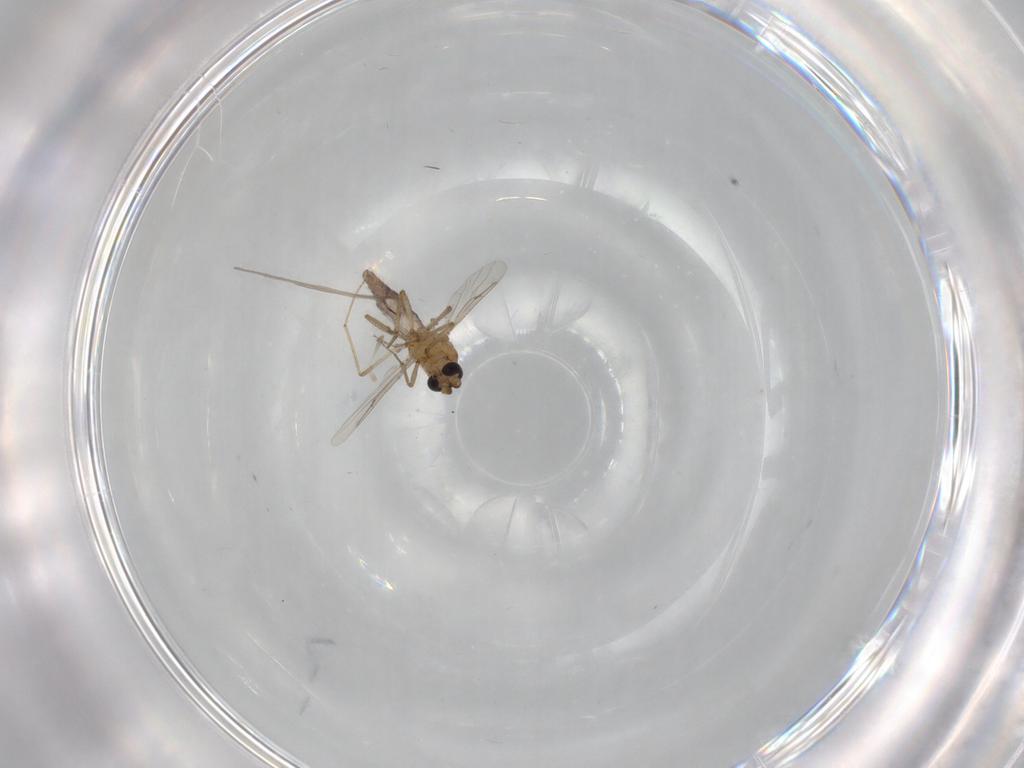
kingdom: Animalia
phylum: Arthropoda
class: Insecta
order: Diptera
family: Cecidomyiidae
